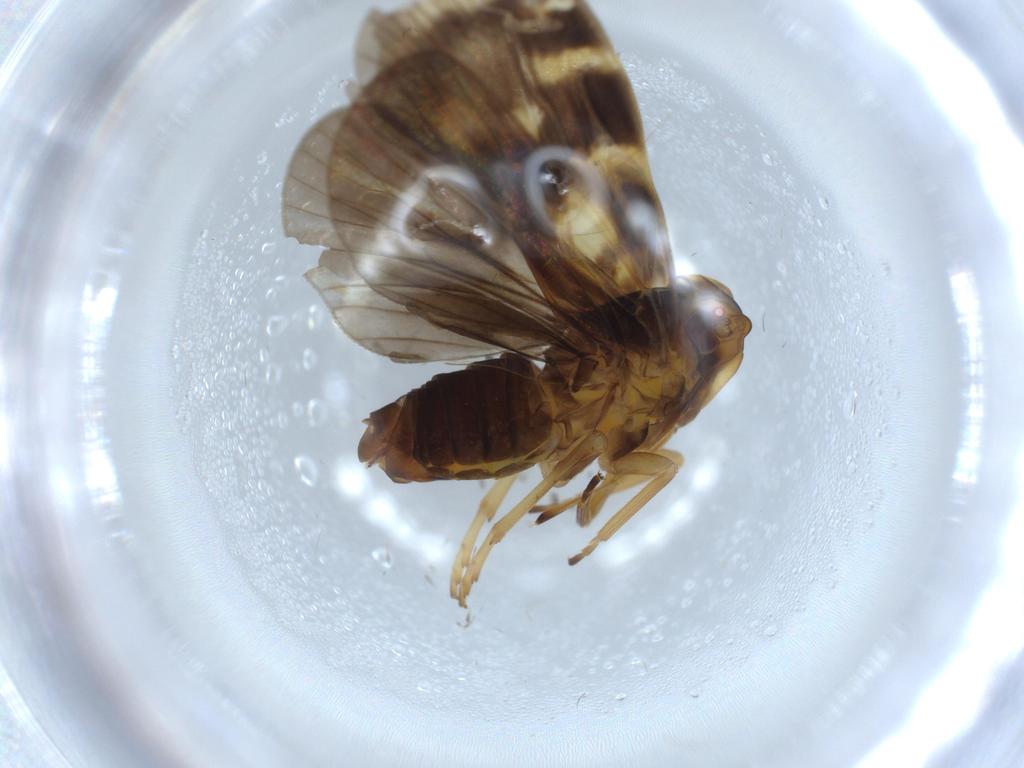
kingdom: Animalia
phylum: Arthropoda
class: Insecta
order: Hemiptera
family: Cixiidae
